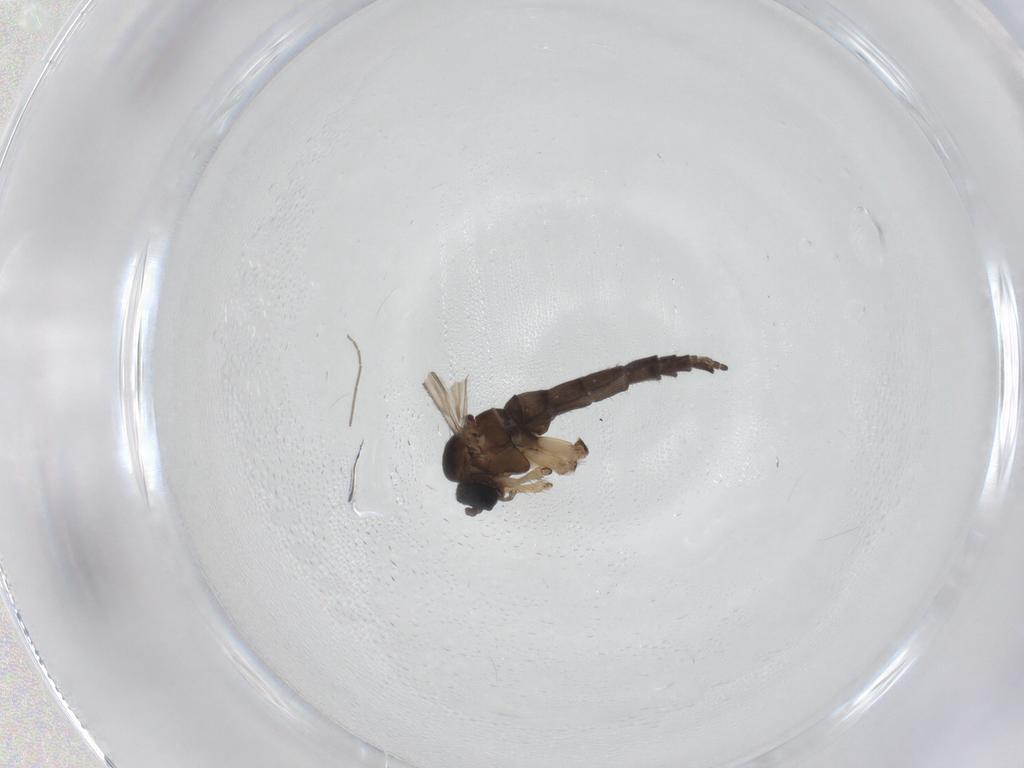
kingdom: Animalia
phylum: Arthropoda
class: Insecta
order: Diptera
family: Sciaridae
